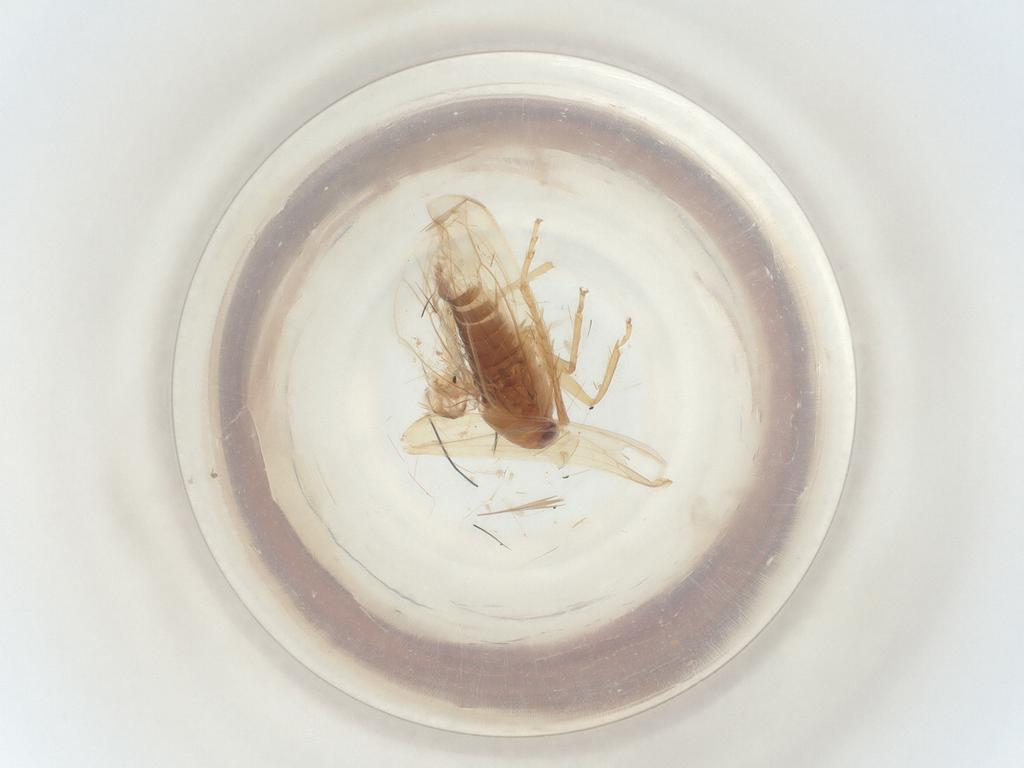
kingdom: Animalia
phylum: Arthropoda
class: Insecta
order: Hemiptera
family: Cicadellidae
